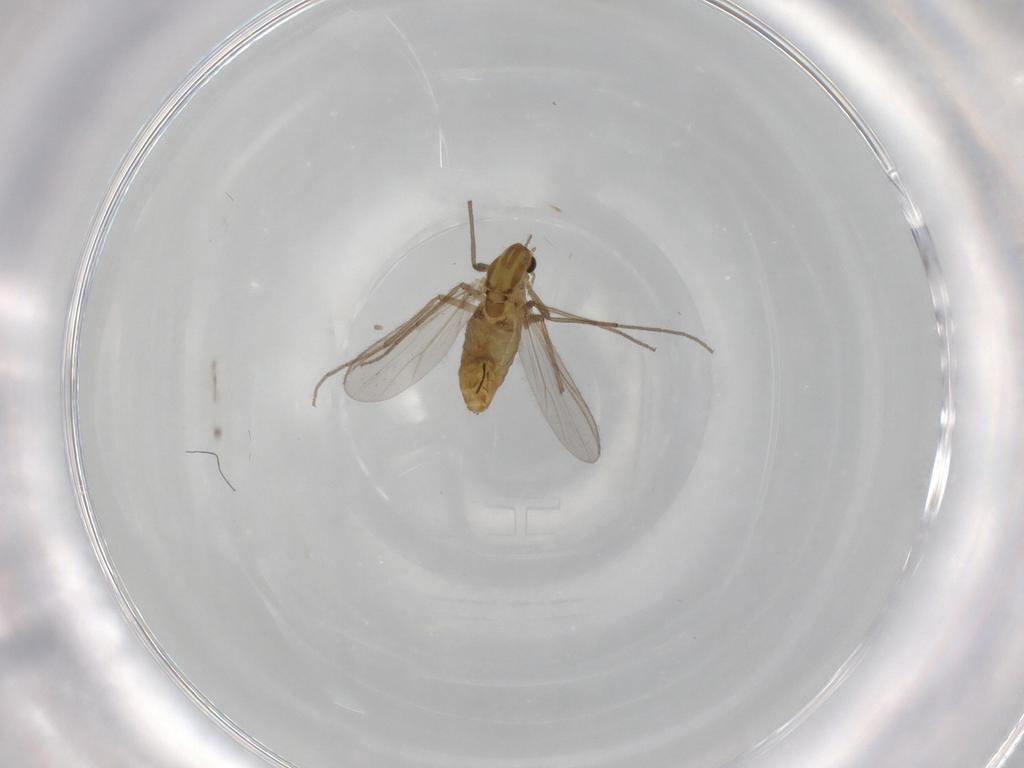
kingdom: Animalia
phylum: Arthropoda
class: Insecta
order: Diptera
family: Chironomidae
